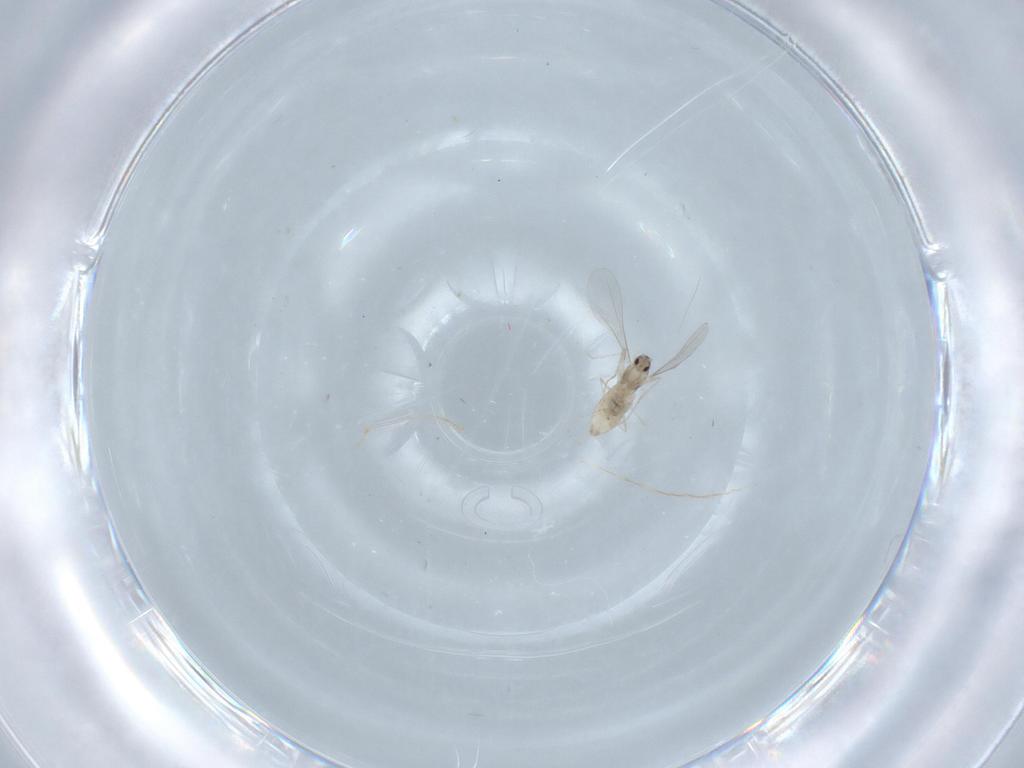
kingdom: Animalia
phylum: Arthropoda
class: Insecta
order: Diptera
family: Cecidomyiidae
